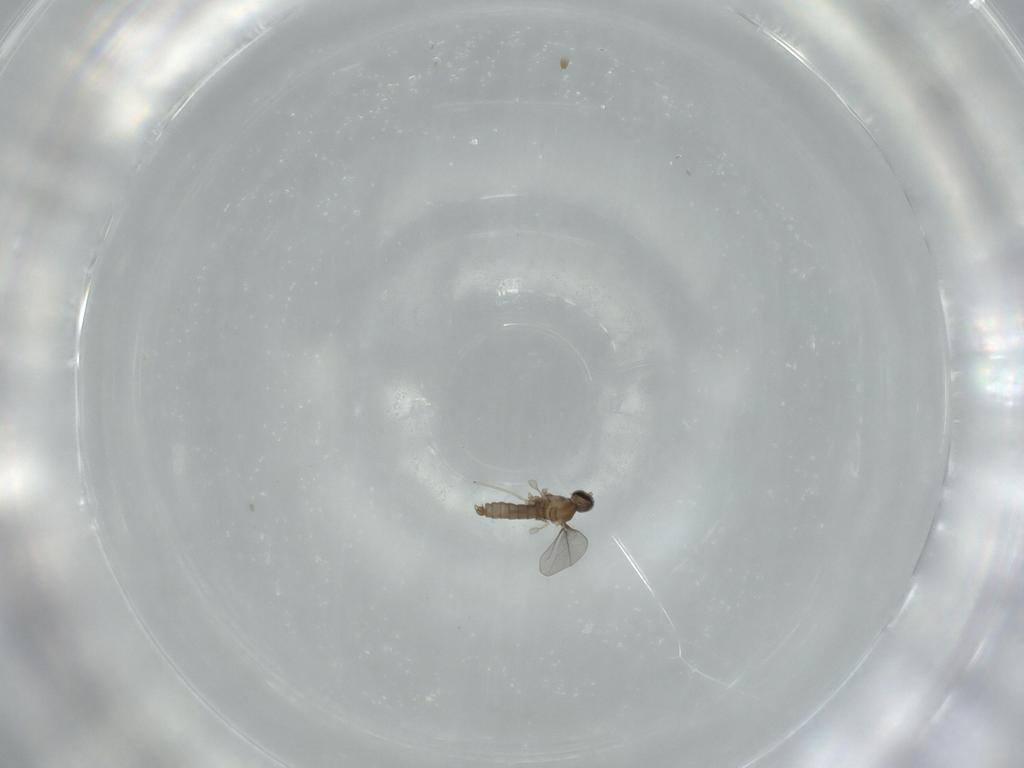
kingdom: Animalia
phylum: Arthropoda
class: Insecta
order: Diptera
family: Cecidomyiidae
